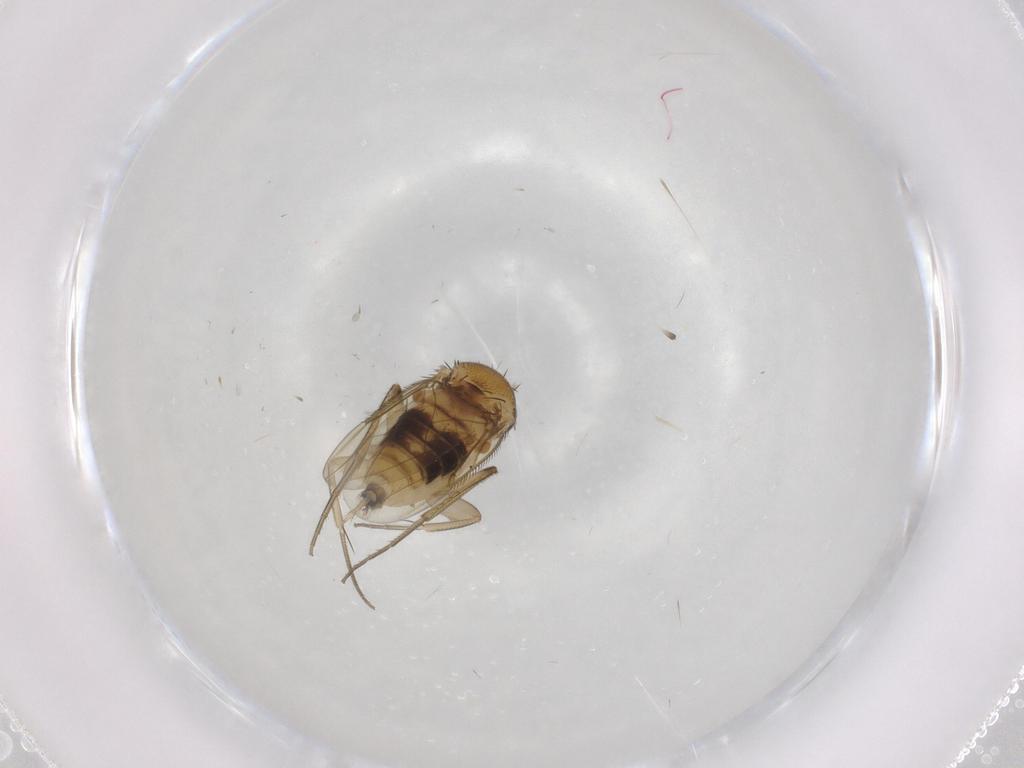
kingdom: Animalia
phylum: Arthropoda
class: Insecta
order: Diptera
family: Phoridae
